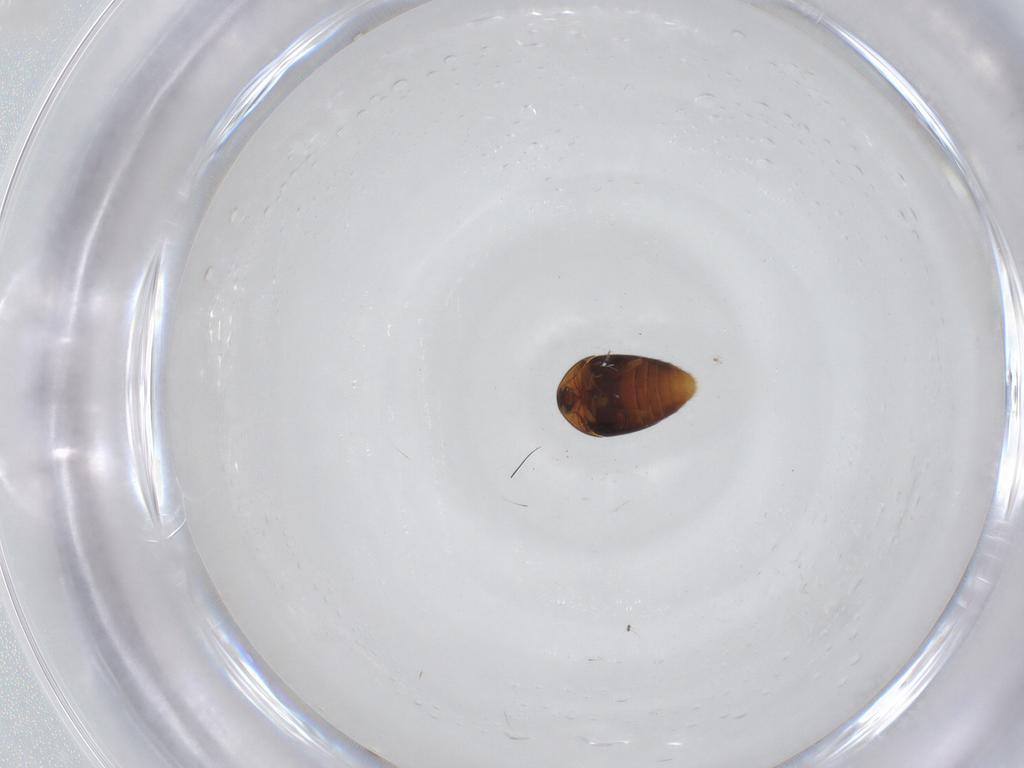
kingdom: Animalia
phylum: Arthropoda
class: Insecta
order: Coleoptera
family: Corylophidae
